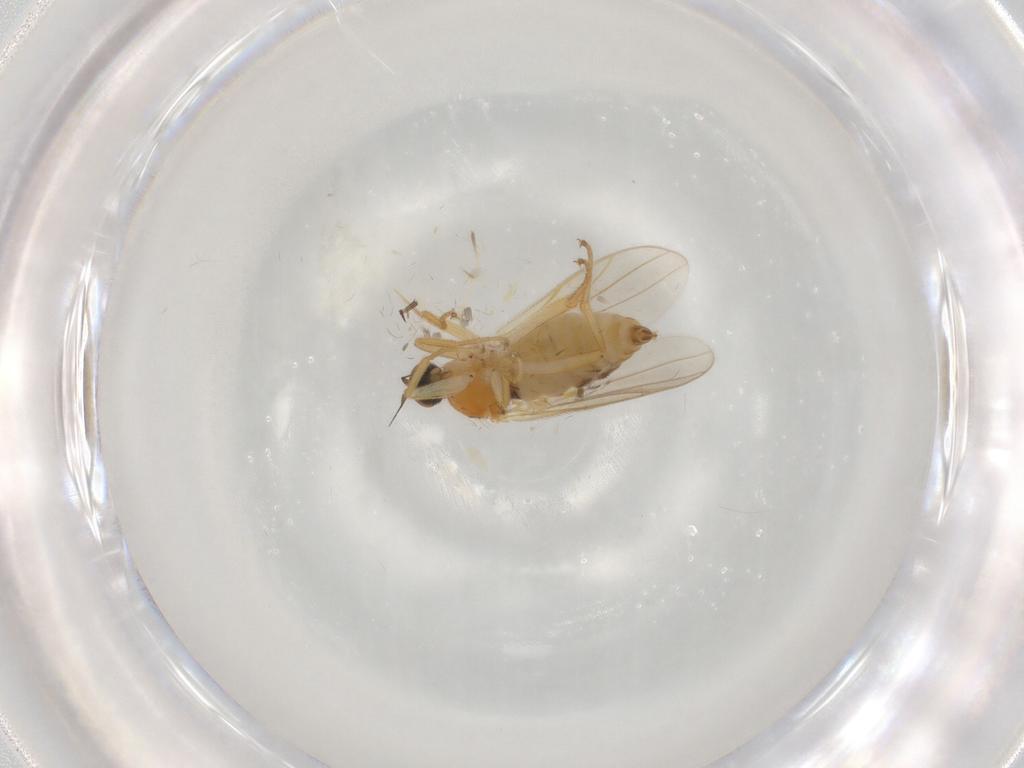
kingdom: Animalia
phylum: Arthropoda
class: Insecta
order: Diptera
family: Hybotidae
